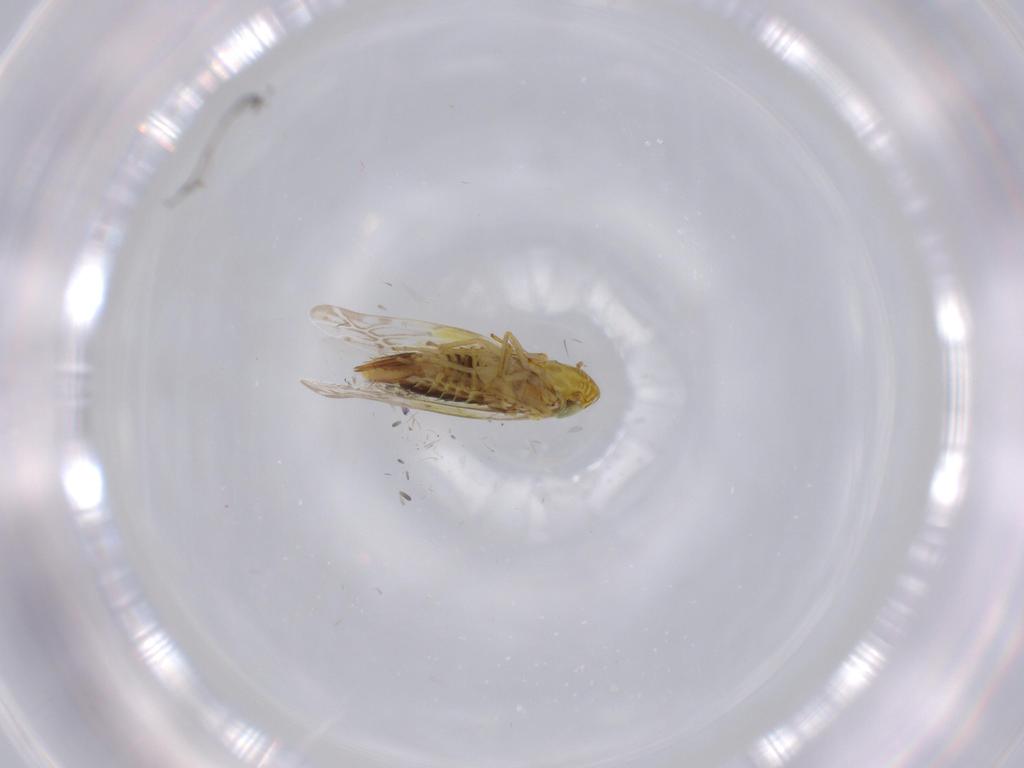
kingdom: Animalia
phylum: Arthropoda
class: Insecta
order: Hemiptera
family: Cicadellidae
